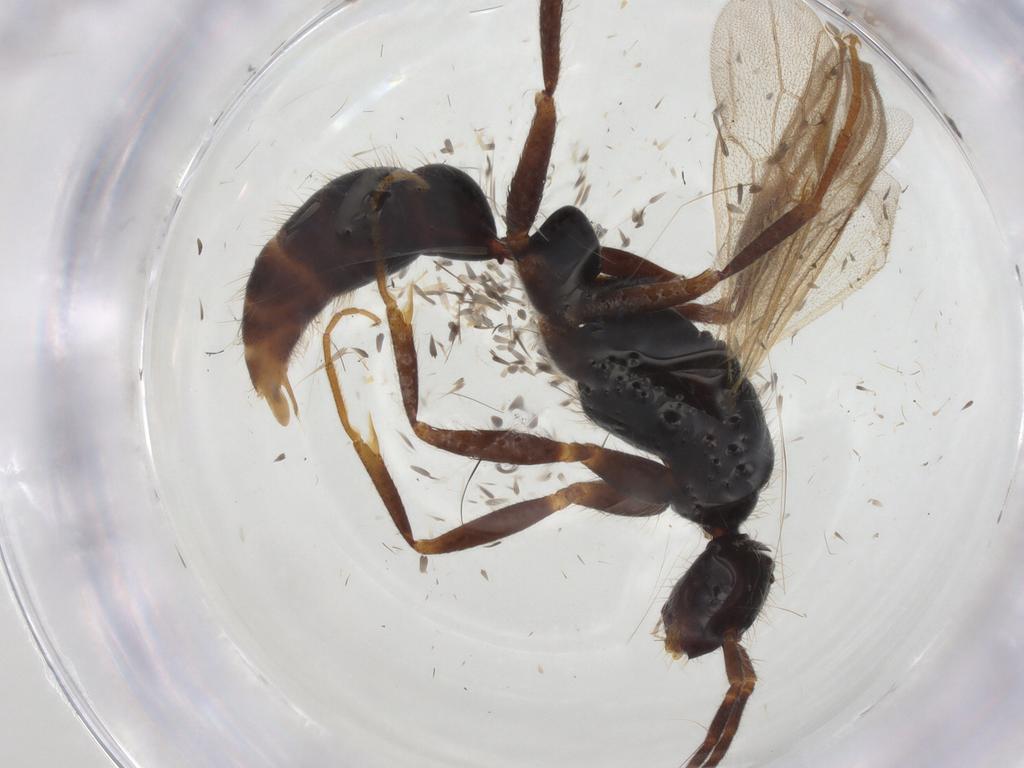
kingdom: Animalia
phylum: Arthropoda
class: Insecta
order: Hymenoptera
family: Formicidae
